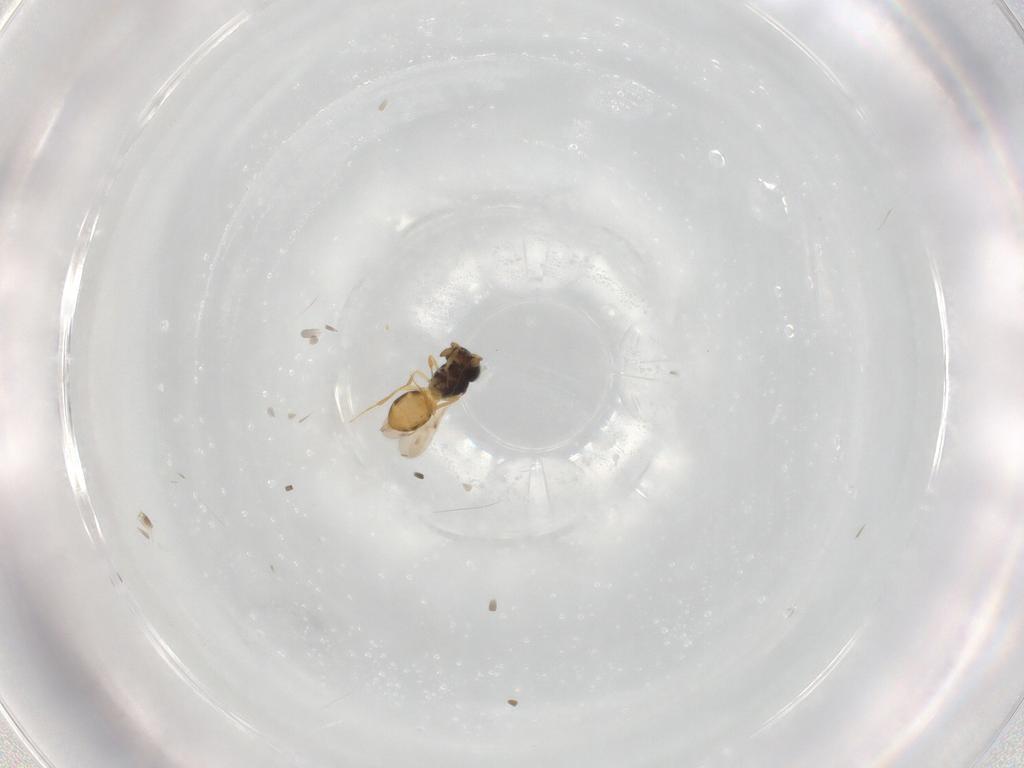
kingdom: Animalia
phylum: Arthropoda
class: Insecta
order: Hymenoptera
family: Scelionidae
